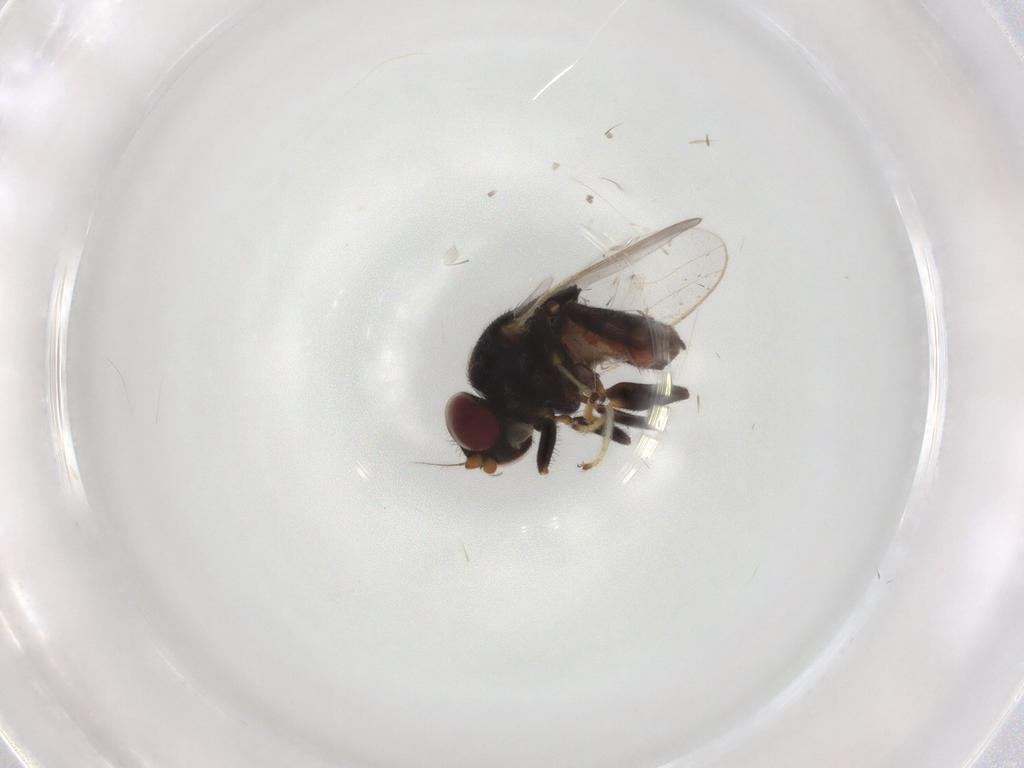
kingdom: Animalia
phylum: Arthropoda
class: Insecta
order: Diptera
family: Chloropidae
